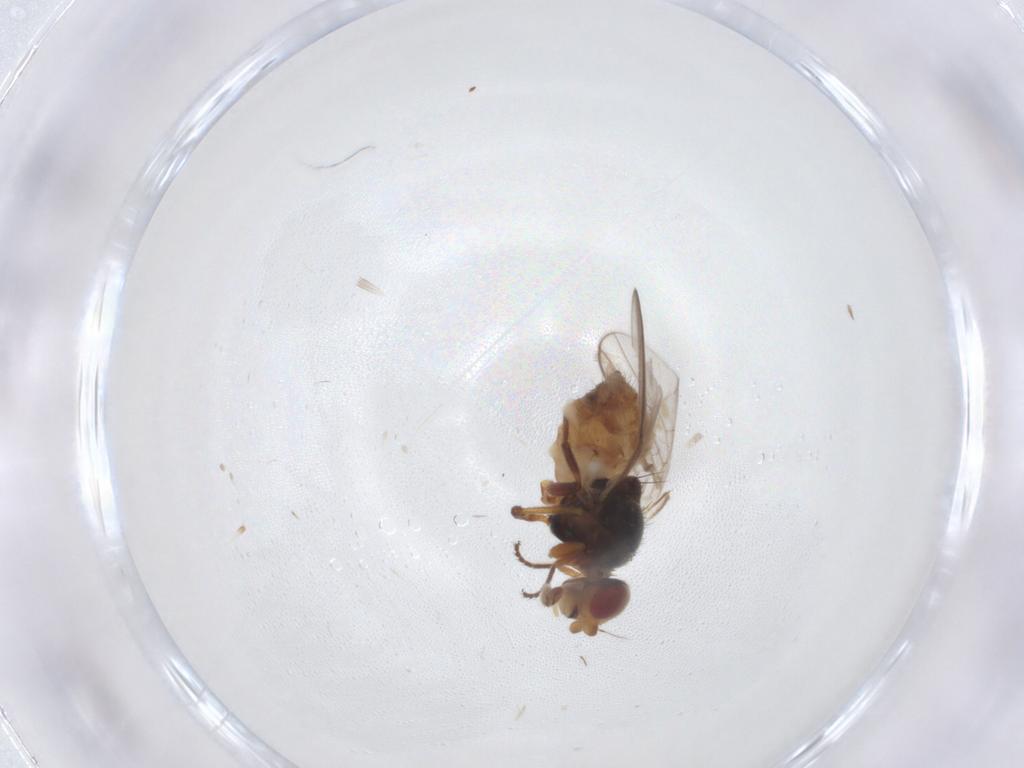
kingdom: Animalia
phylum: Arthropoda
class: Insecta
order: Diptera
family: Chloropidae
